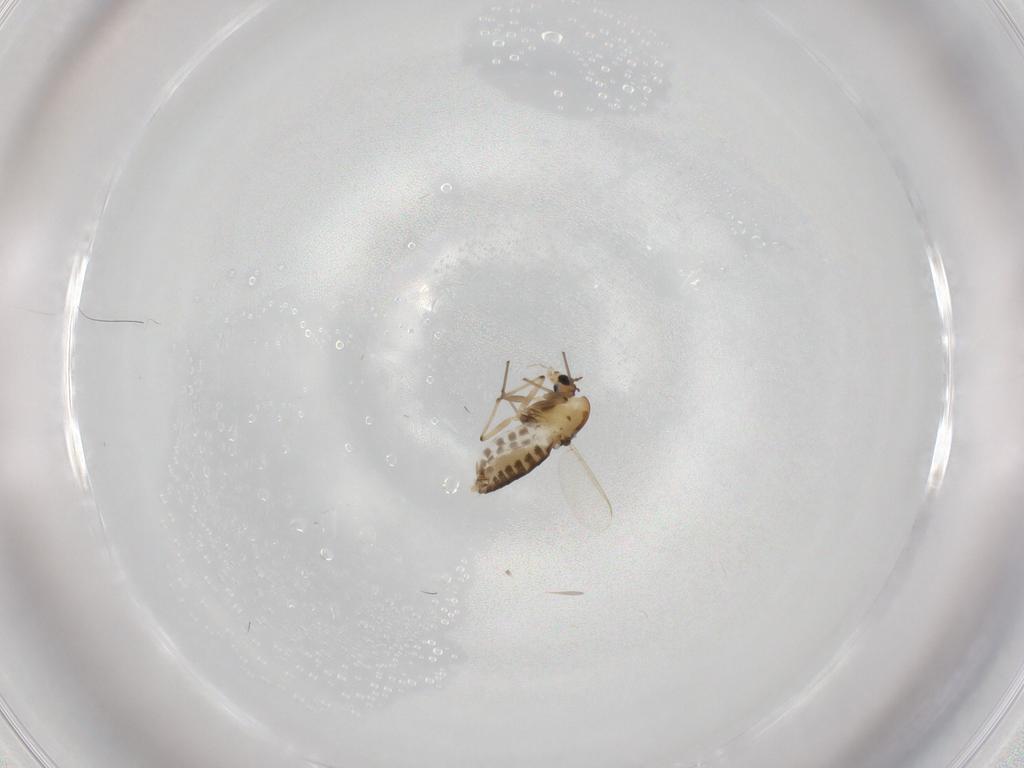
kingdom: Animalia
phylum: Arthropoda
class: Insecta
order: Diptera
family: Chironomidae
